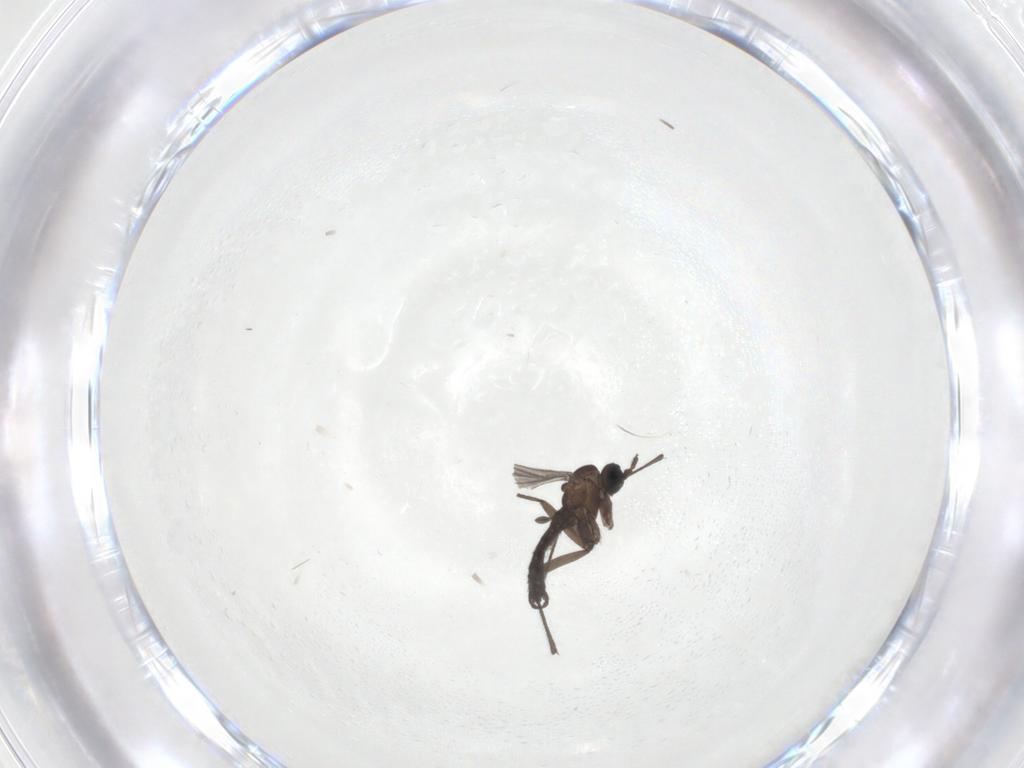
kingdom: Animalia
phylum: Arthropoda
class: Insecta
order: Diptera
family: Sciaridae
